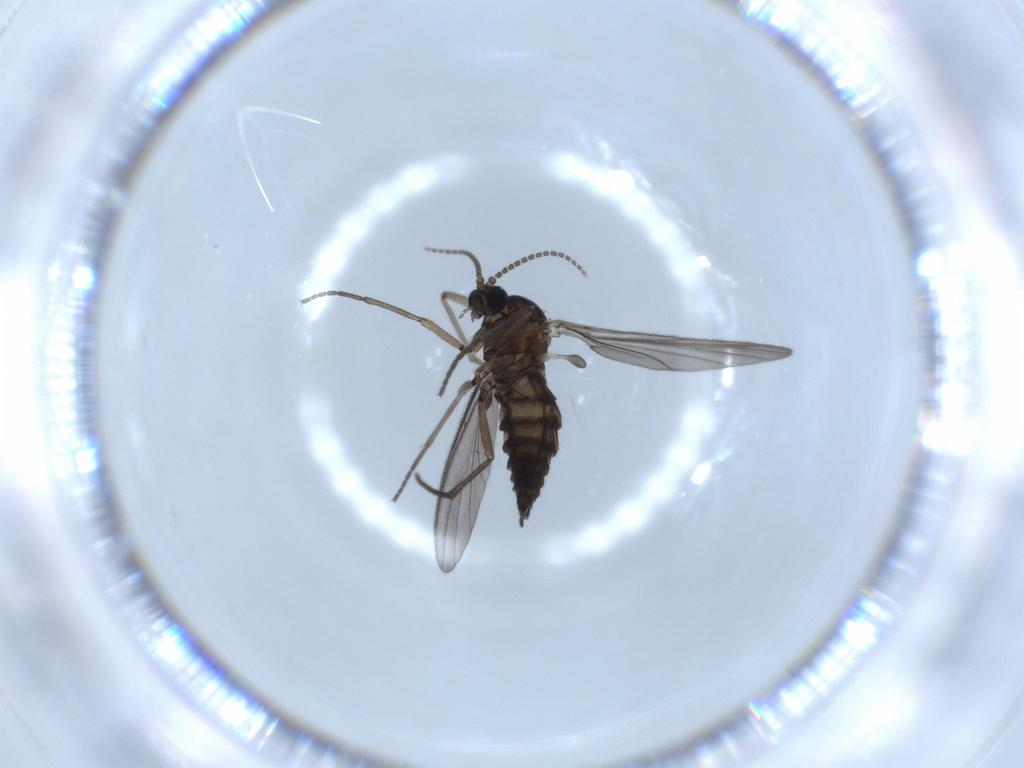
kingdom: Animalia
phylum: Arthropoda
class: Insecta
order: Diptera
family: Sciaridae
